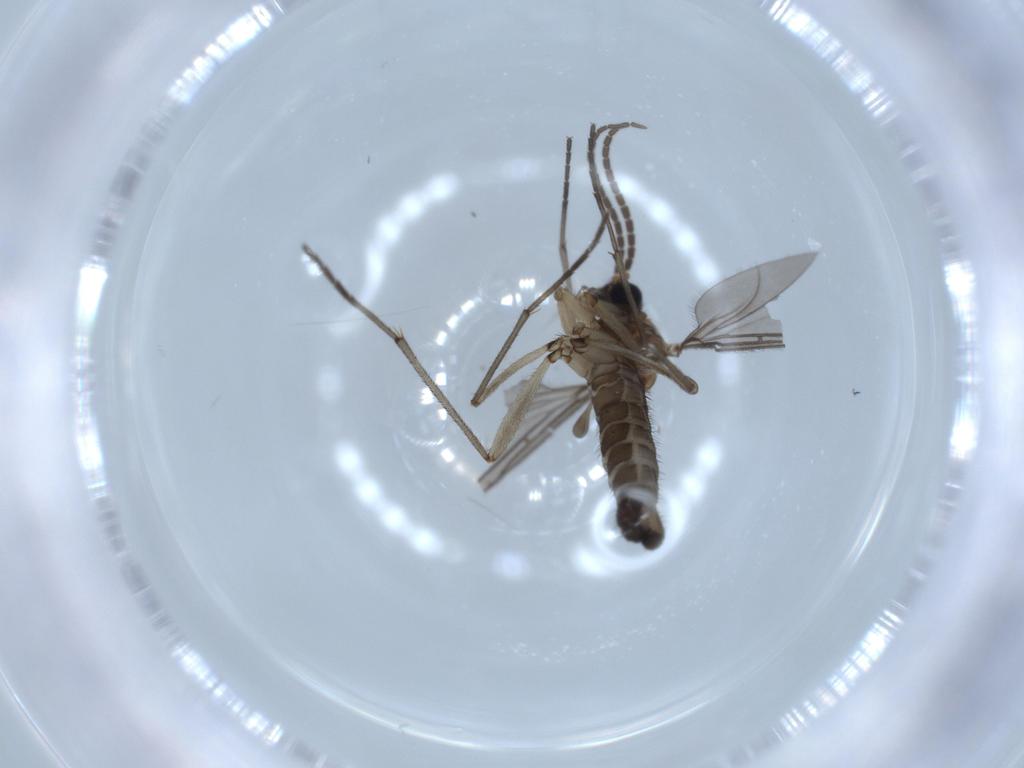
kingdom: Animalia
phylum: Arthropoda
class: Insecta
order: Diptera
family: Sciaridae
